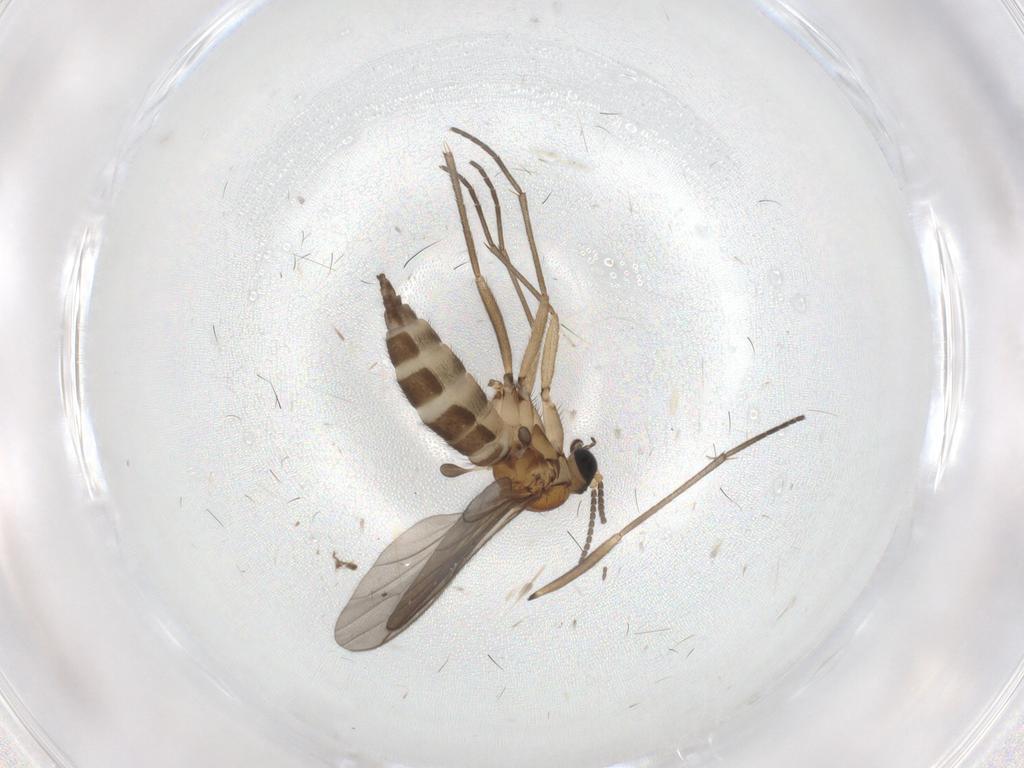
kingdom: Animalia
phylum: Arthropoda
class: Insecta
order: Diptera
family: Sciaridae
